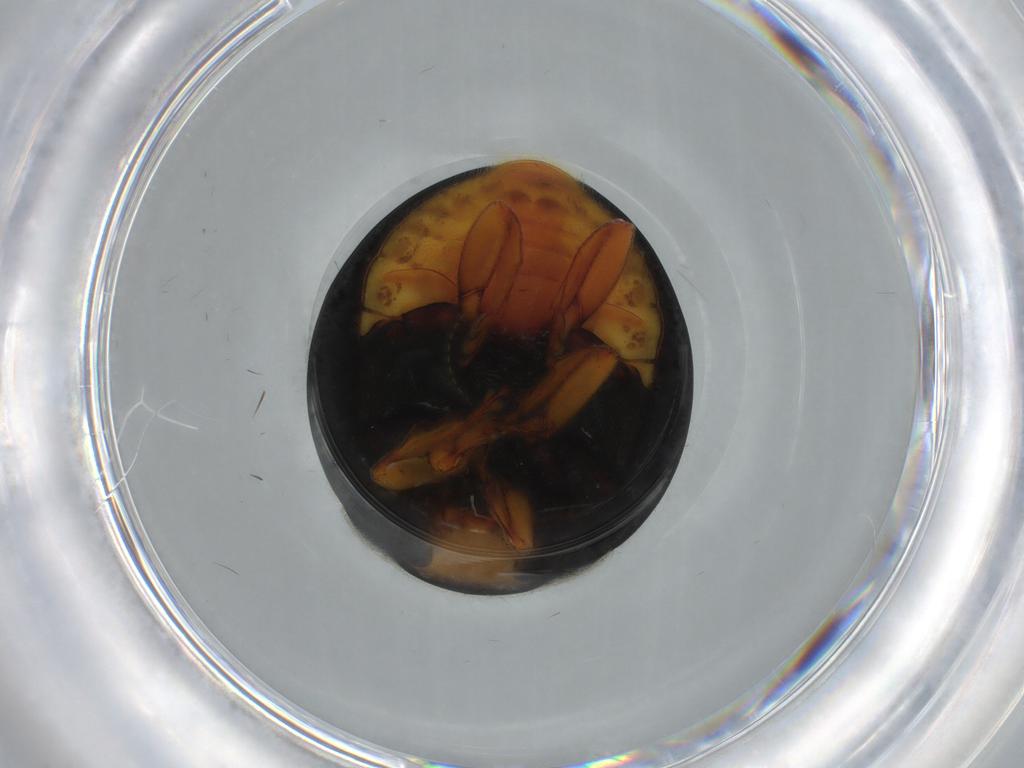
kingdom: Animalia
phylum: Arthropoda
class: Insecta
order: Coleoptera
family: Coccinellidae
